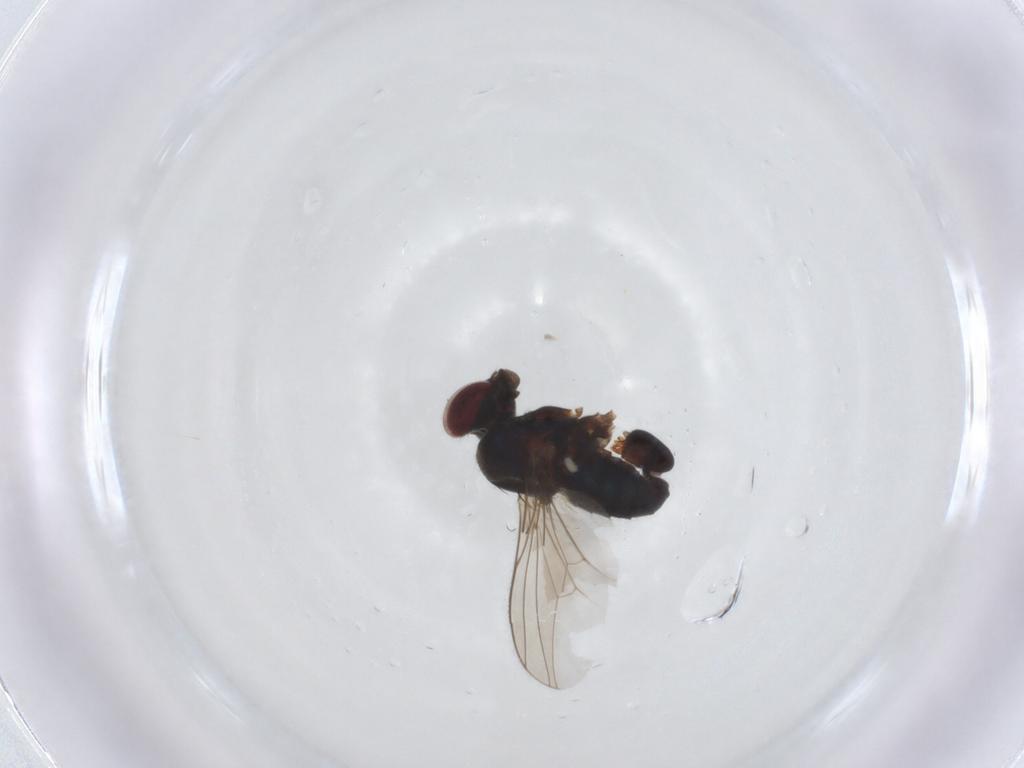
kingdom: Animalia
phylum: Arthropoda
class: Insecta
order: Diptera
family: Dolichopodidae
